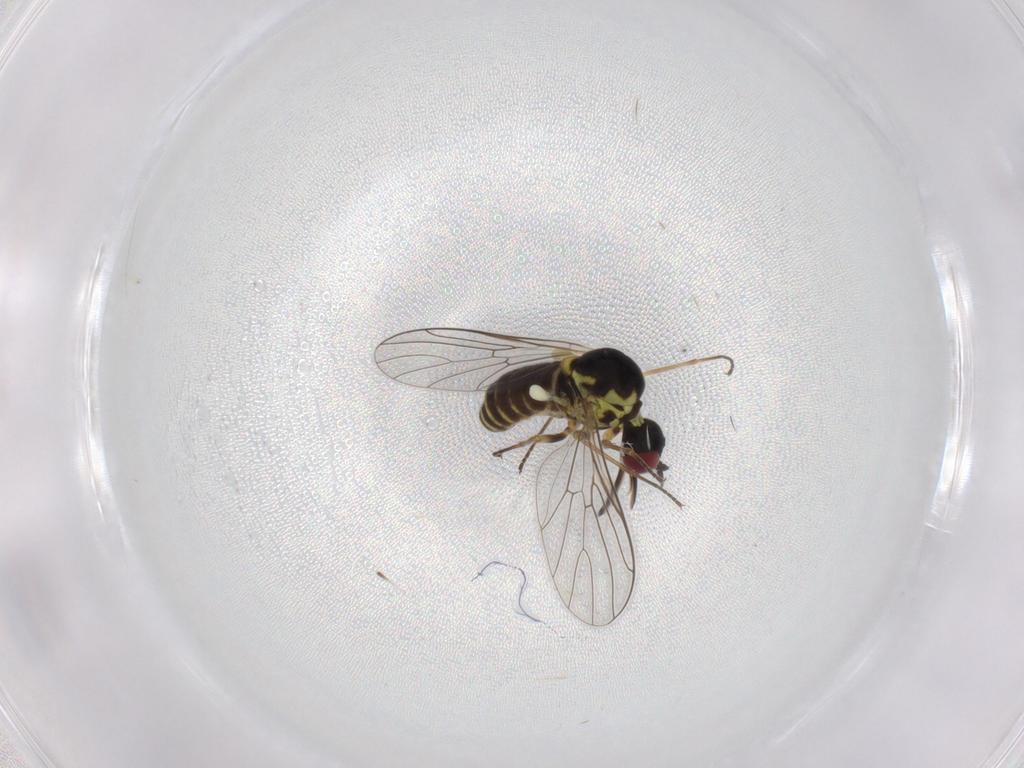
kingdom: Animalia
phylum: Arthropoda
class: Insecta
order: Diptera
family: Bombyliidae
